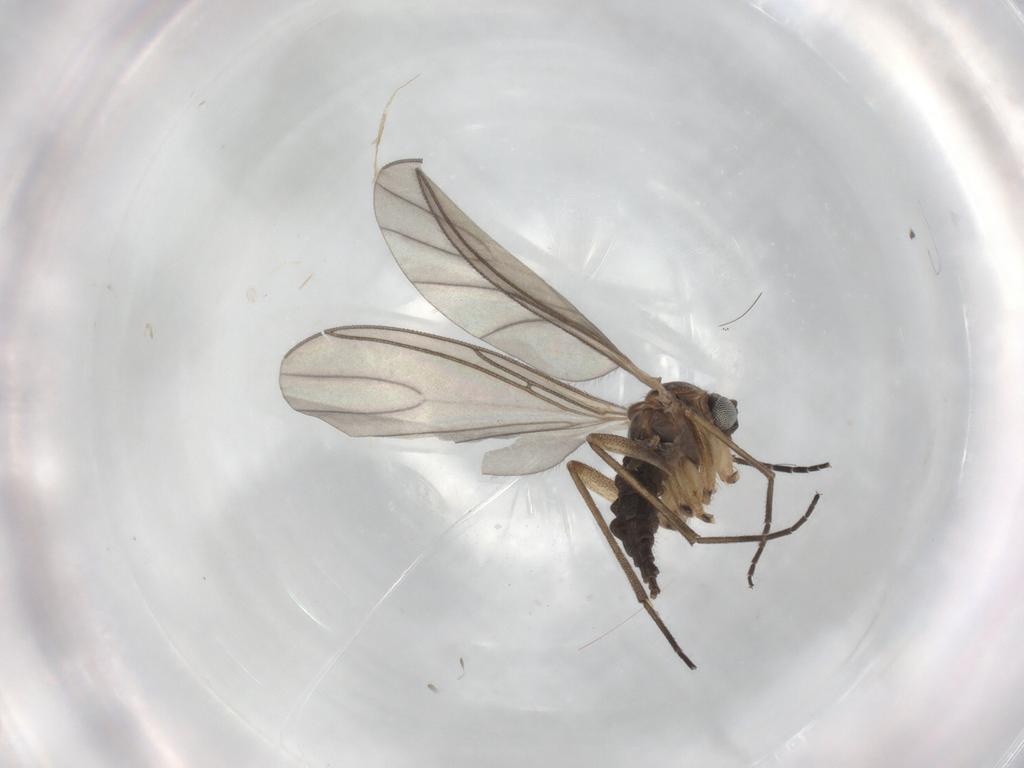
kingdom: Animalia
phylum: Arthropoda
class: Insecta
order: Diptera
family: Sciaridae
